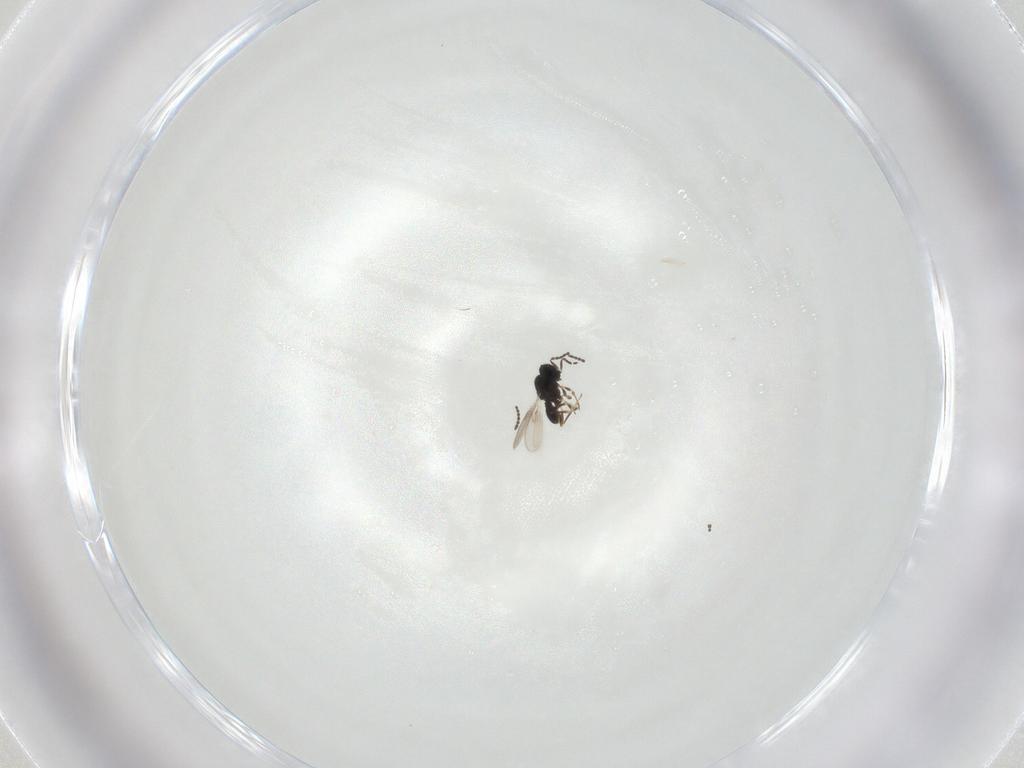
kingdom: Animalia
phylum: Arthropoda
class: Insecta
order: Hymenoptera
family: Scelionidae
